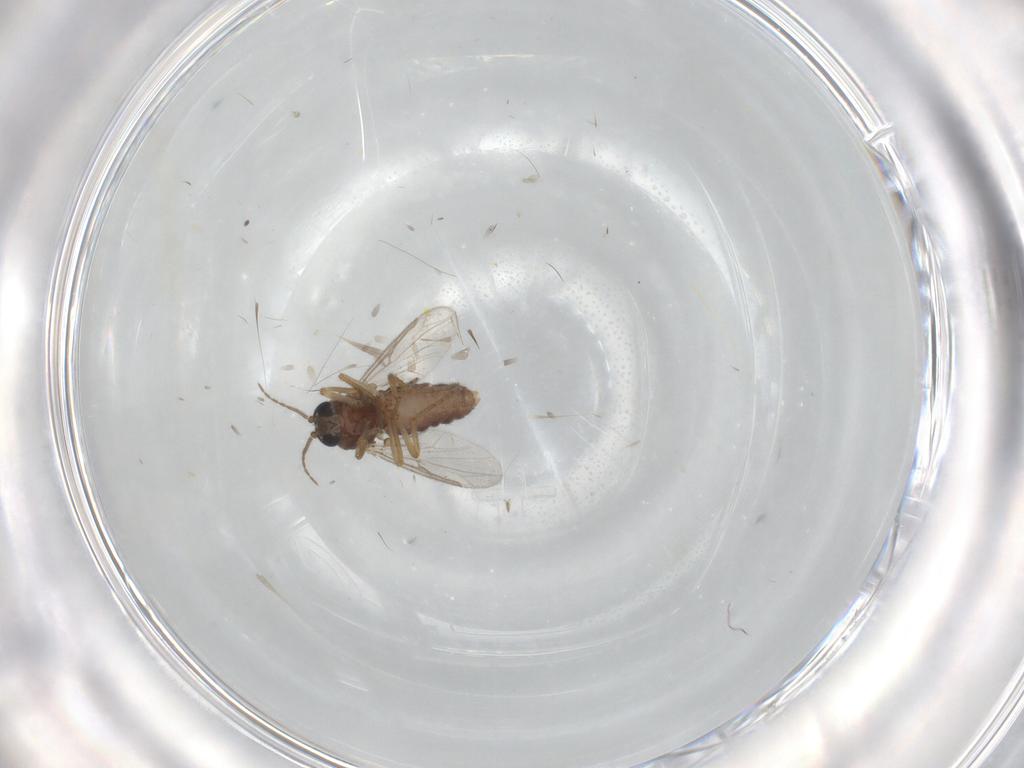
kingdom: Animalia
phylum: Arthropoda
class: Insecta
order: Diptera
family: Ceratopogonidae
